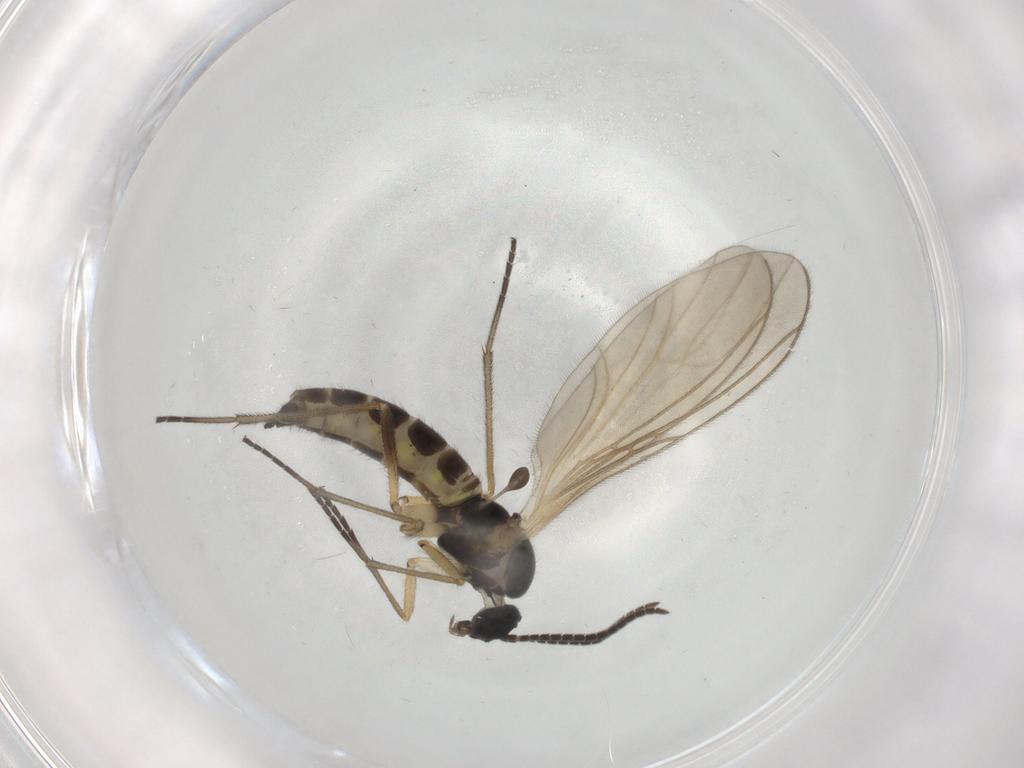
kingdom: Animalia
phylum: Arthropoda
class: Insecta
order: Diptera
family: Sciaridae
